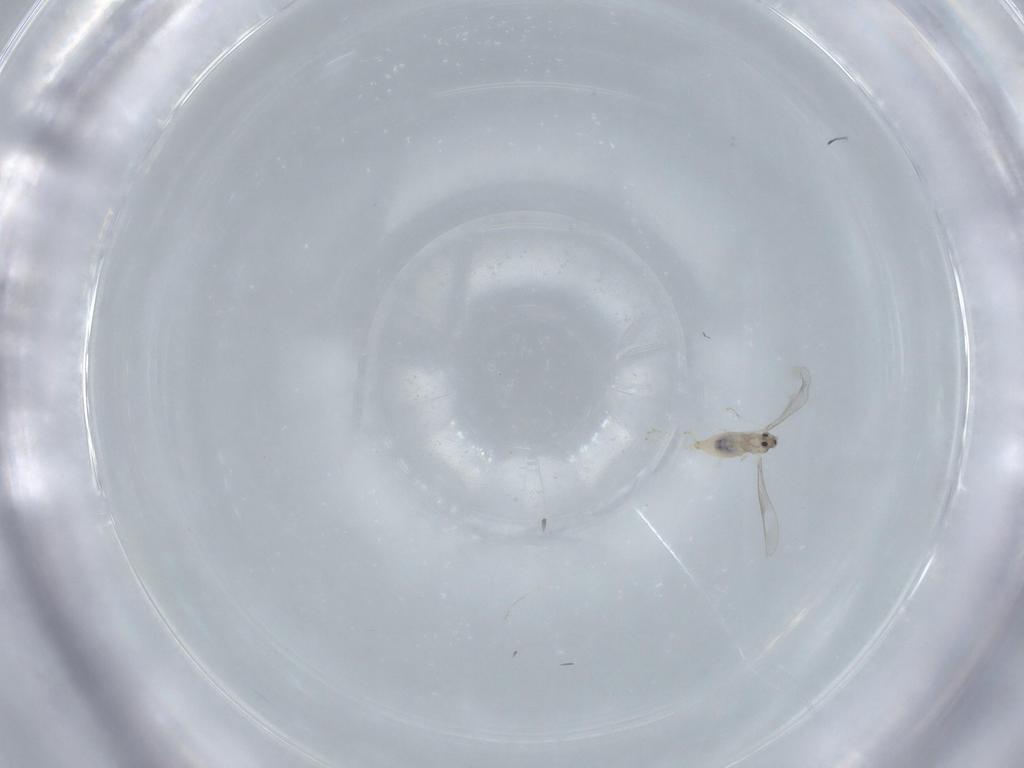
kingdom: Animalia
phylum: Arthropoda
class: Insecta
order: Diptera
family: Cecidomyiidae
